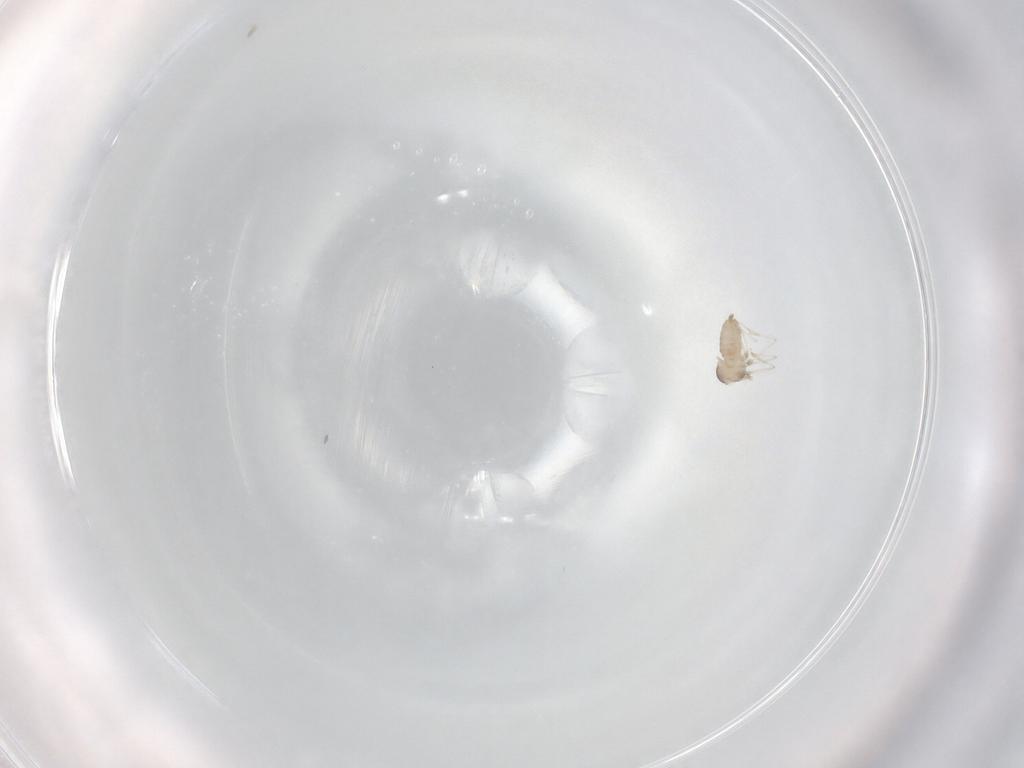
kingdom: Animalia
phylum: Arthropoda
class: Insecta
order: Diptera
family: Cecidomyiidae
